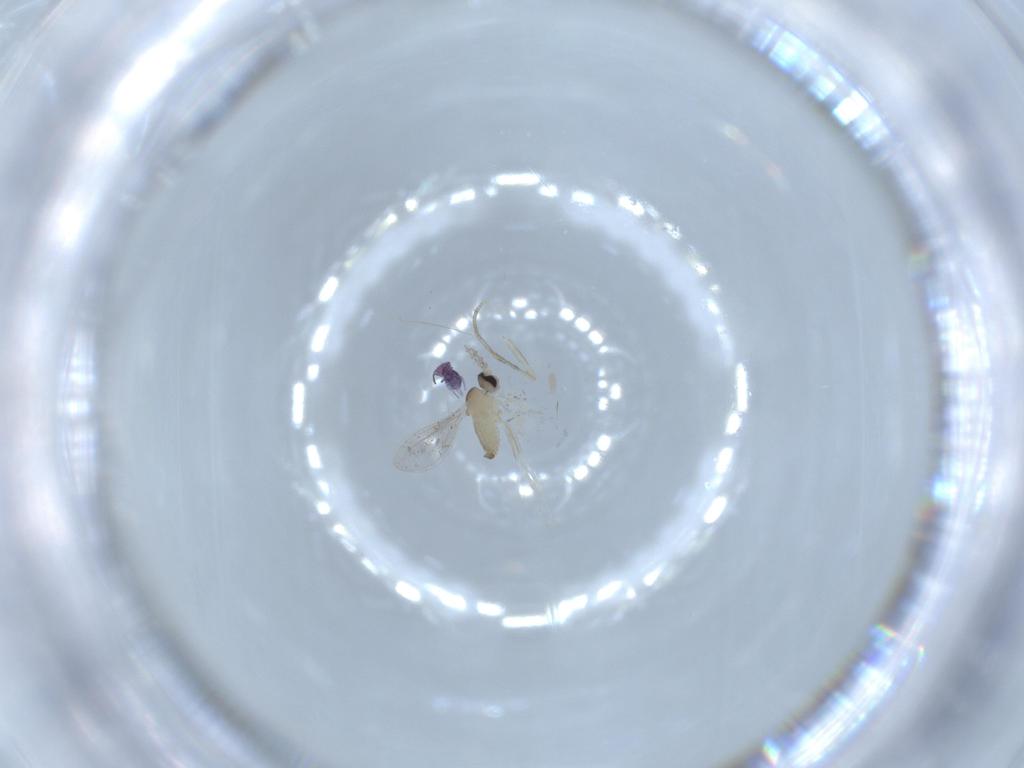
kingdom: Animalia
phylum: Arthropoda
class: Insecta
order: Diptera
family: Cecidomyiidae
